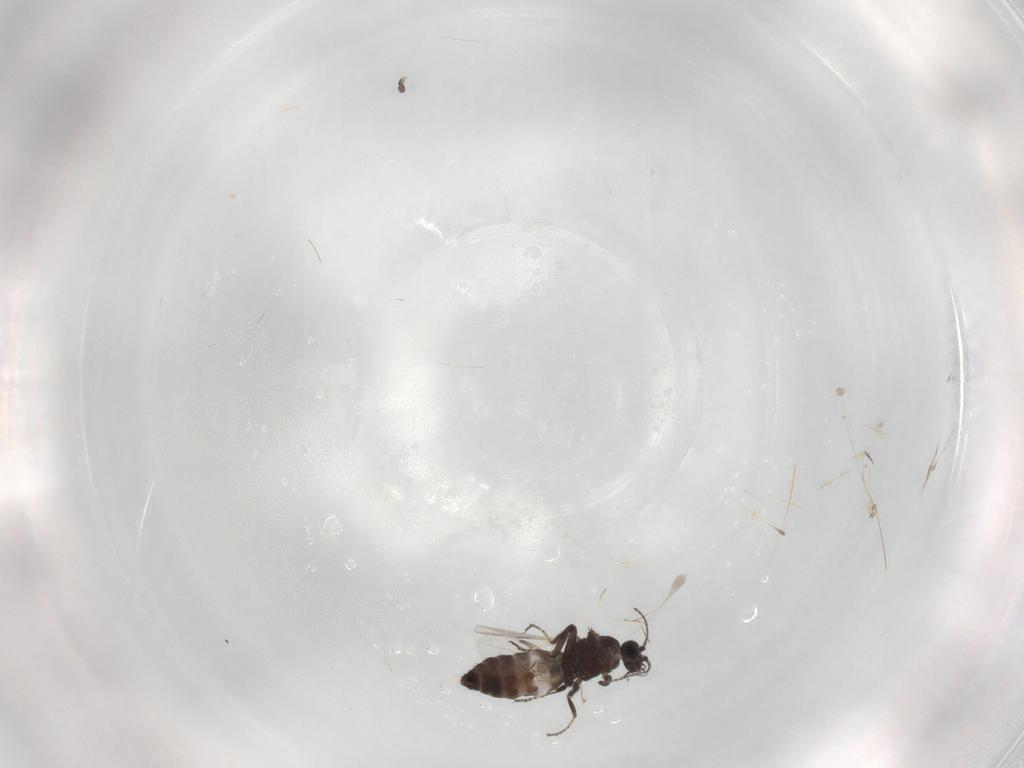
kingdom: Animalia
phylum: Arthropoda
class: Insecta
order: Diptera
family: Ceratopogonidae
